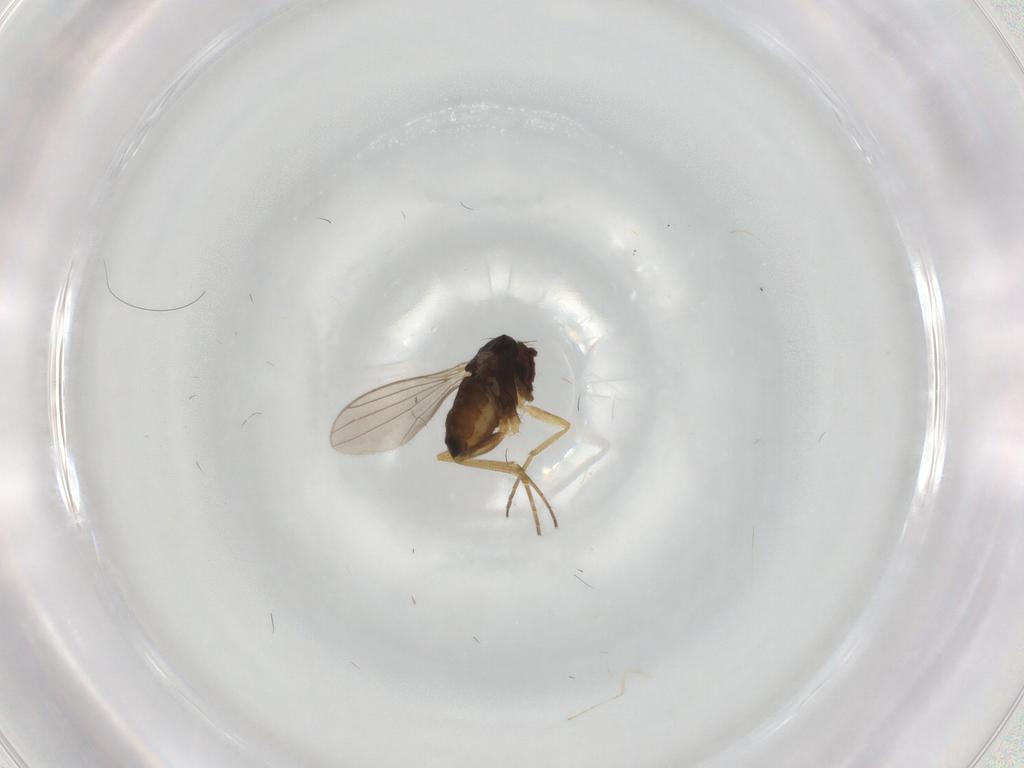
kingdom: Animalia
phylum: Arthropoda
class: Insecta
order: Diptera
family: Dolichopodidae
